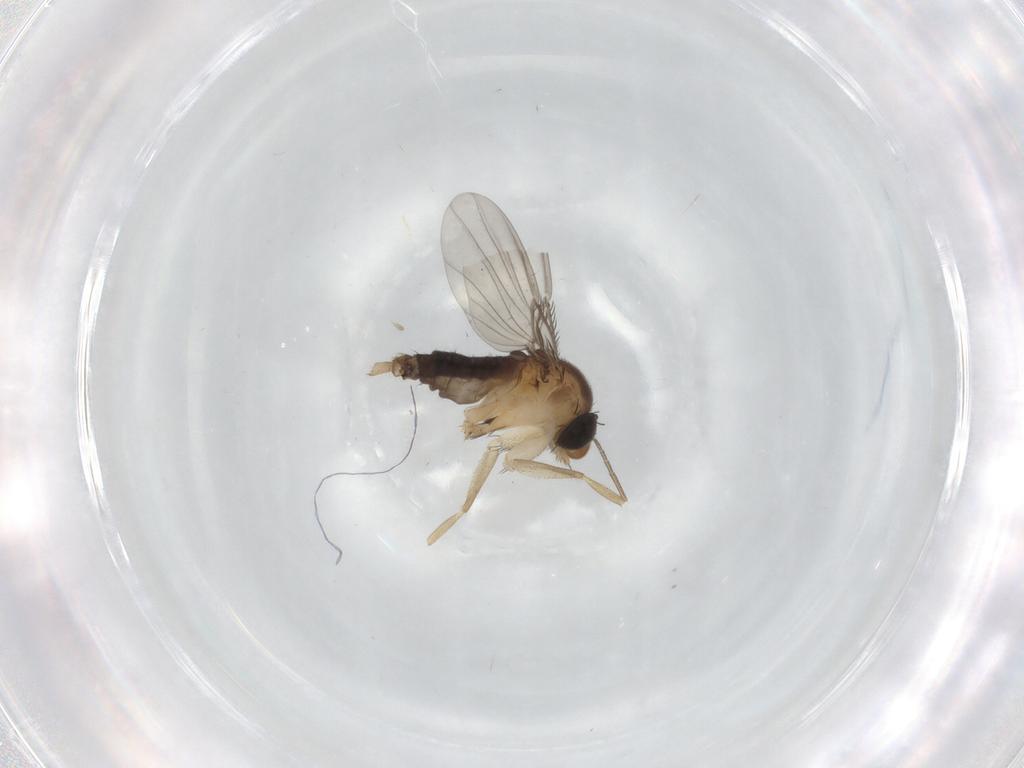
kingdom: Animalia
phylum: Arthropoda
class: Insecta
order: Diptera
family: Phoridae
